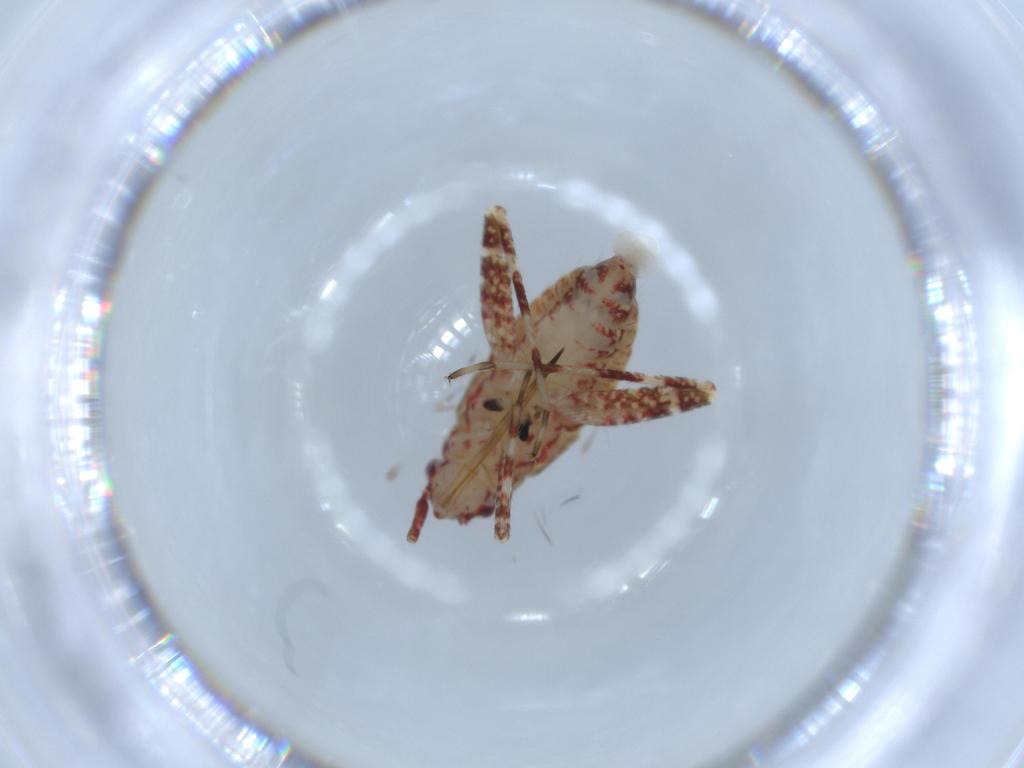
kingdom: Animalia
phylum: Arthropoda
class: Insecta
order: Hemiptera
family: Miridae
